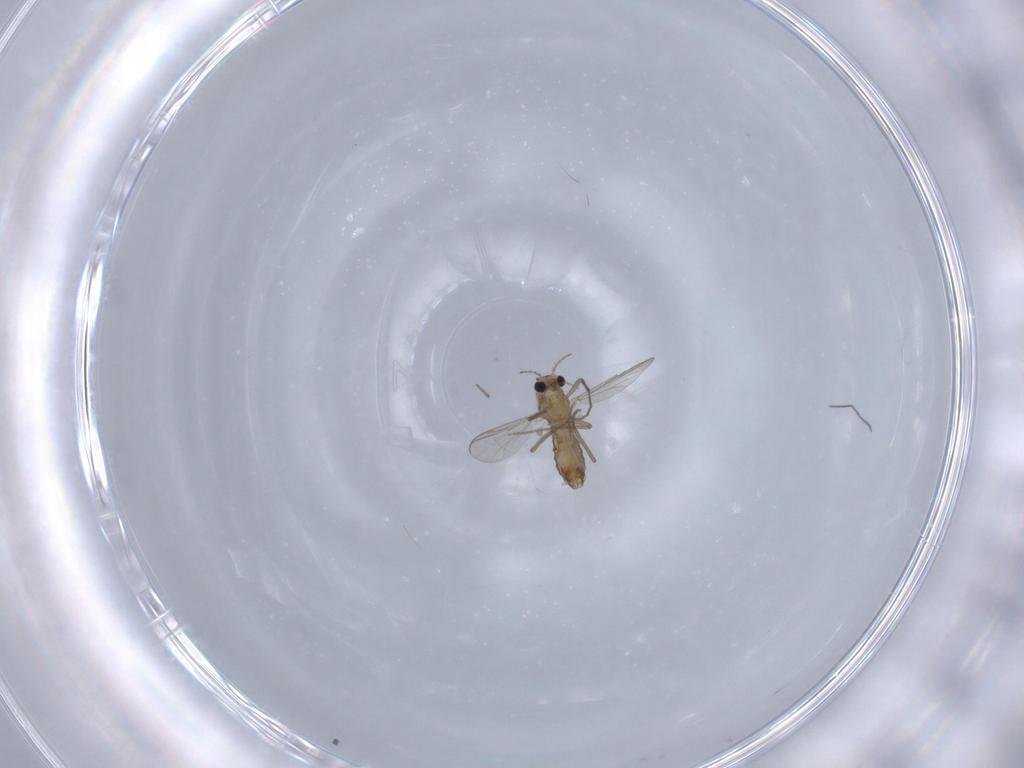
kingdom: Animalia
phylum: Arthropoda
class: Insecta
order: Diptera
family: Chironomidae
